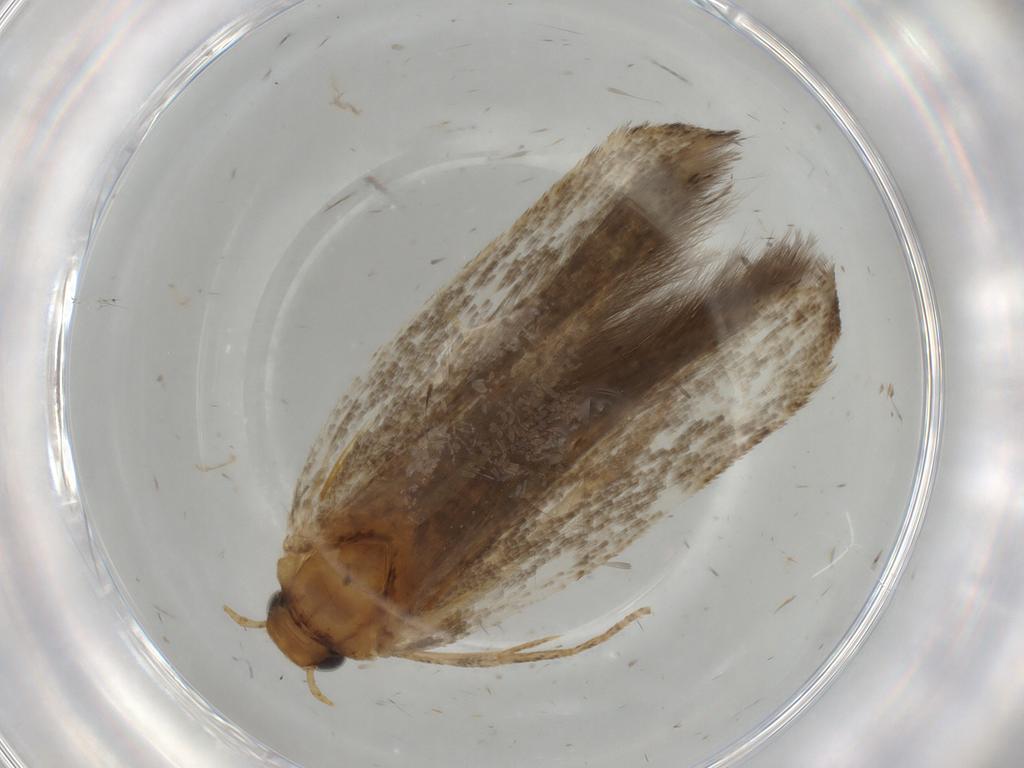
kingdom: Animalia
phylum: Arthropoda
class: Insecta
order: Lepidoptera
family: Gelechiidae
